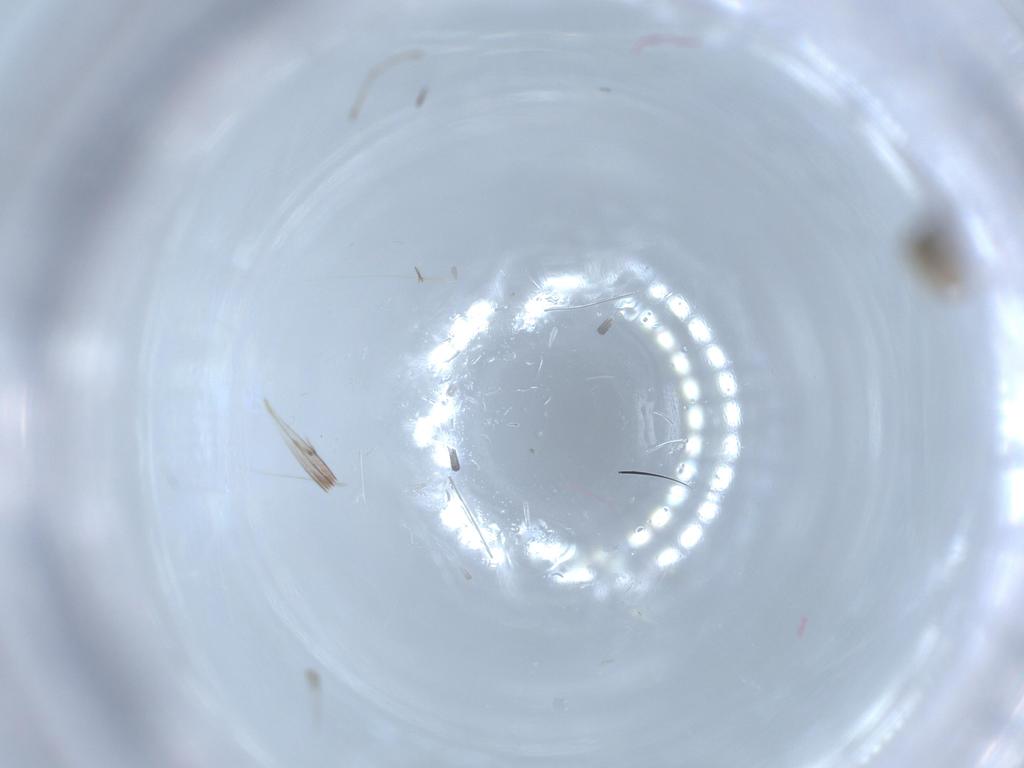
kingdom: Animalia
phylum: Arthropoda
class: Insecta
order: Diptera
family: Cecidomyiidae
